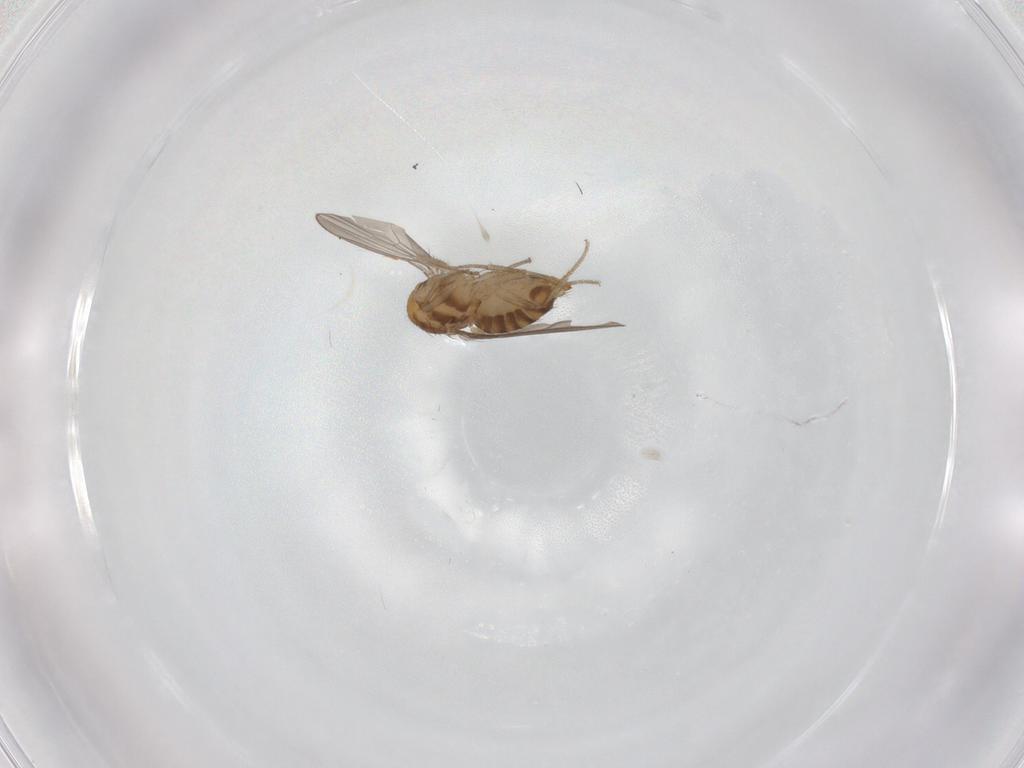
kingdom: Animalia
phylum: Arthropoda
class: Insecta
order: Diptera
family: Drosophilidae
